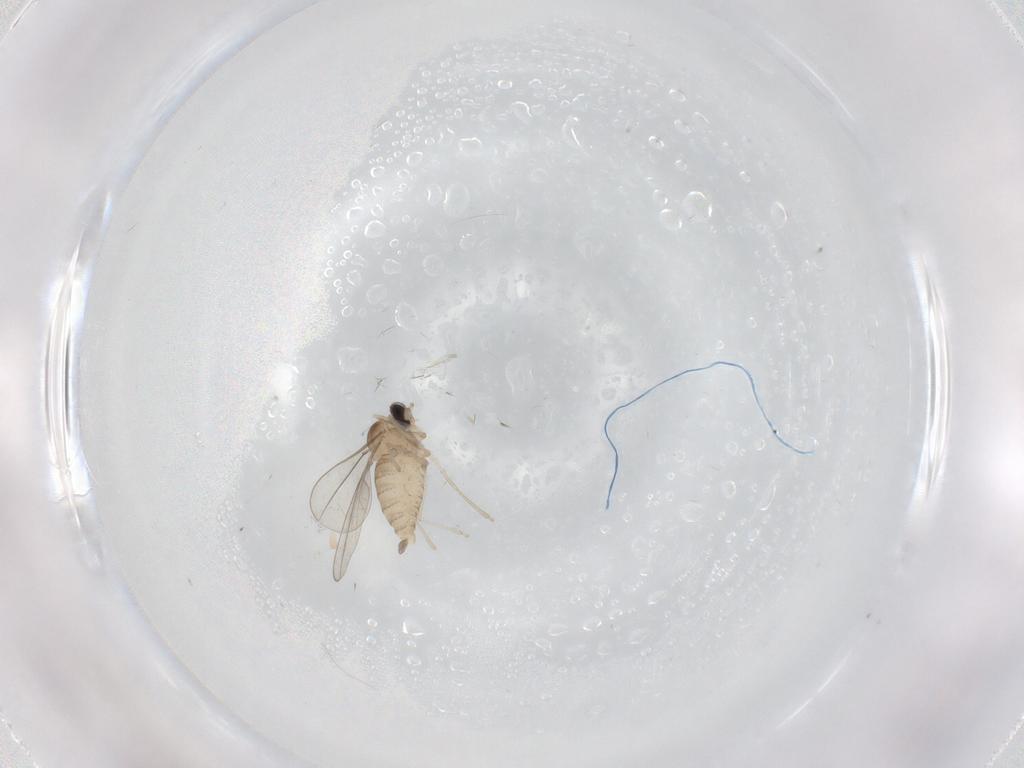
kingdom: Animalia
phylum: Arthropoda
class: Insecta
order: Diptera
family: Cecidomyiidae
